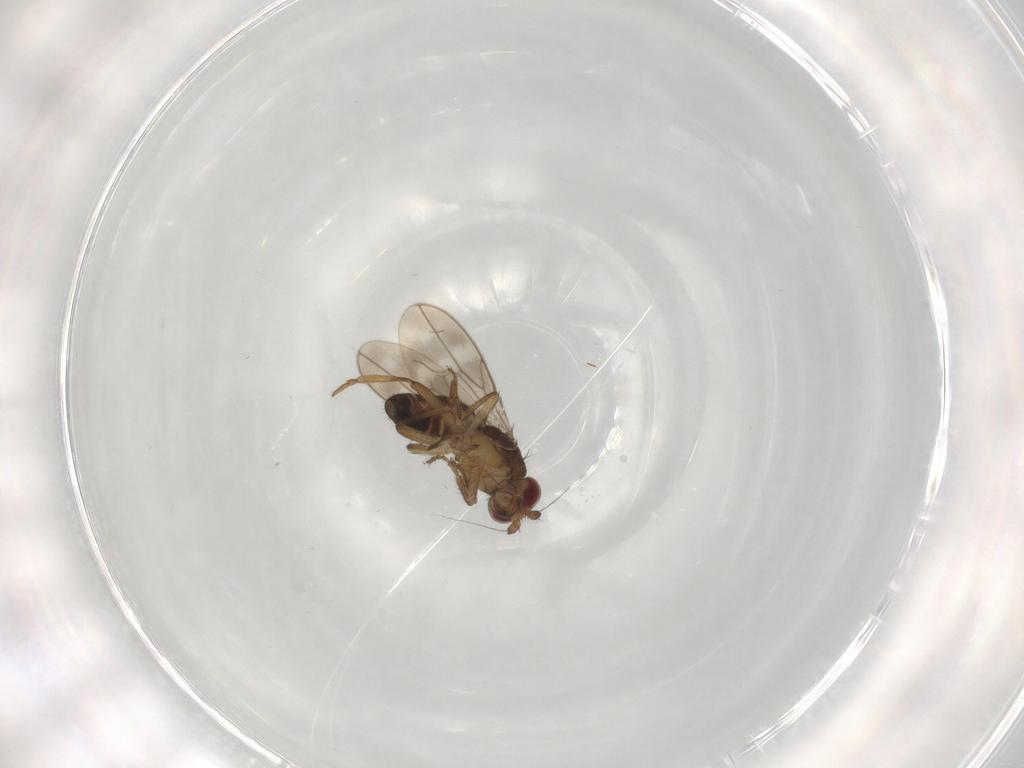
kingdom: Animalia
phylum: Arthropoda
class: Insecta
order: Diptera
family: Sphaeroceridae
